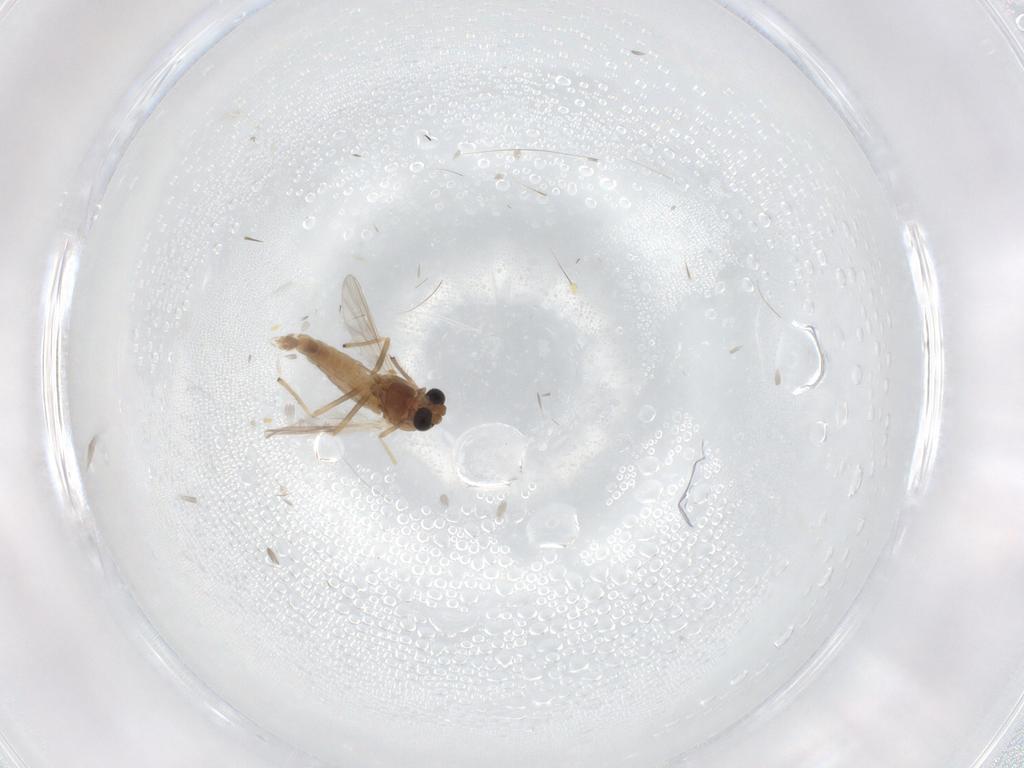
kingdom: Animalia
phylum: Arthropoda
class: Insecta
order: Diptera
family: Chironomidae
